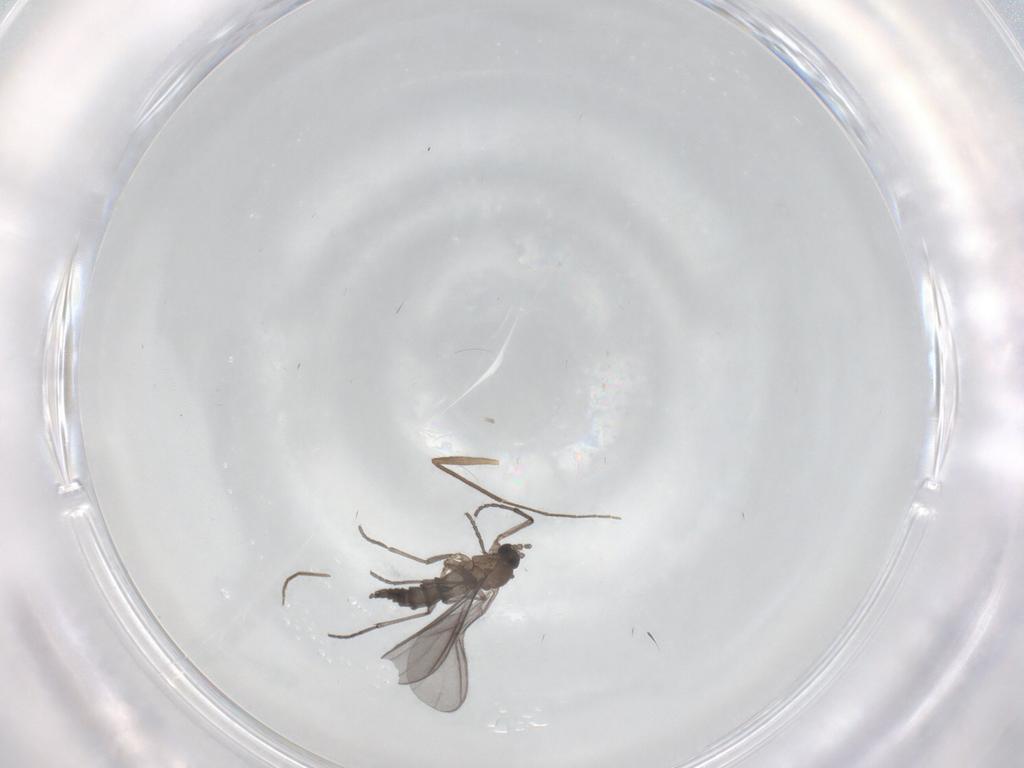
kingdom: Animalia
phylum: Arthropoda
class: Insecta
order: Diptera
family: Sciaridae
